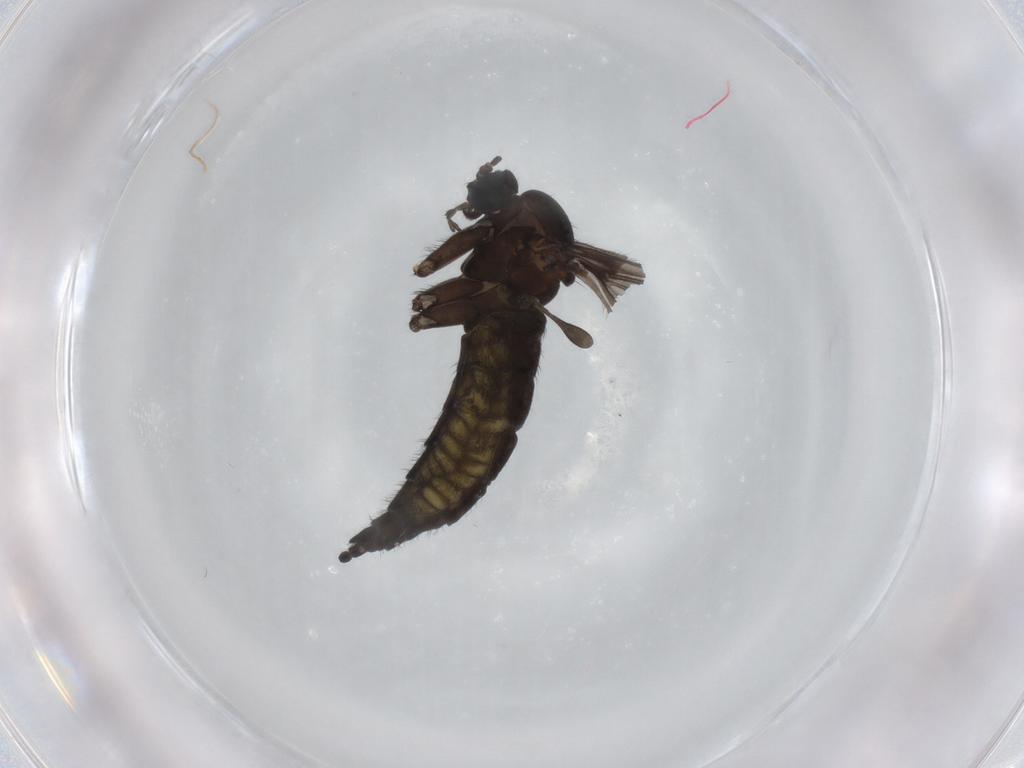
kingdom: Animalia
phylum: Arthropoda
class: Insecta
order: Diptera
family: Sciaridae
